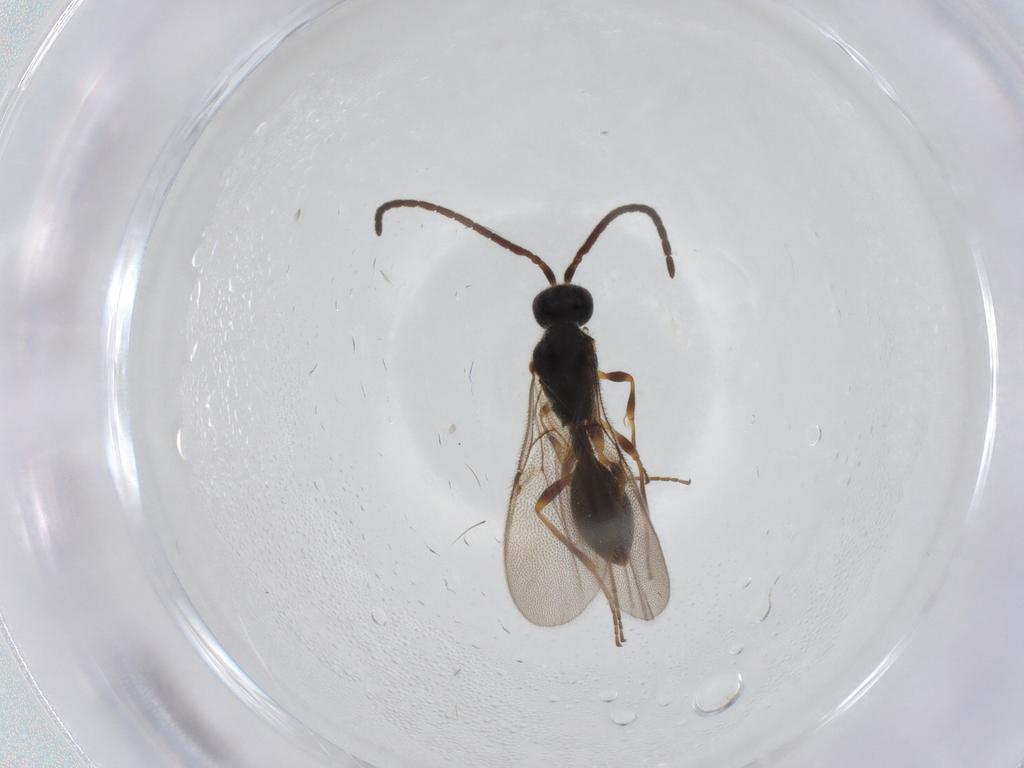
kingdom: Animalia
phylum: Arthropoda
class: Insecta
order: Hymenoptera
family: Diapriidae
